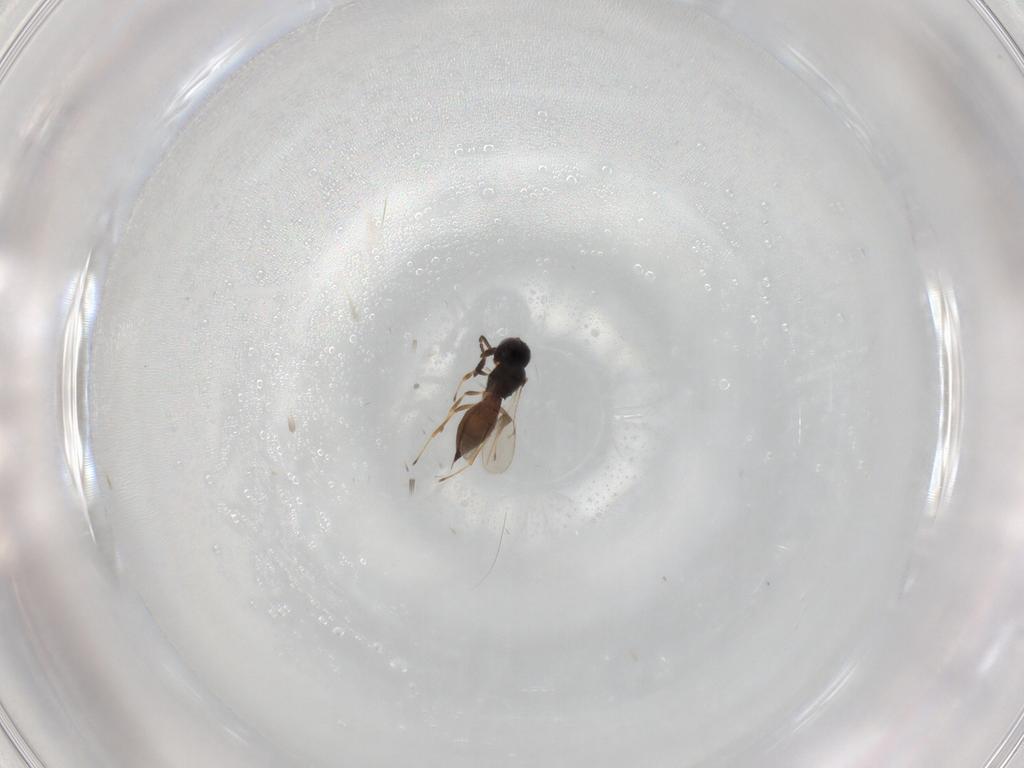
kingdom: Animalia
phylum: Arthropoda
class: Insecta
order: Hymenoptera
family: Scelionidae
